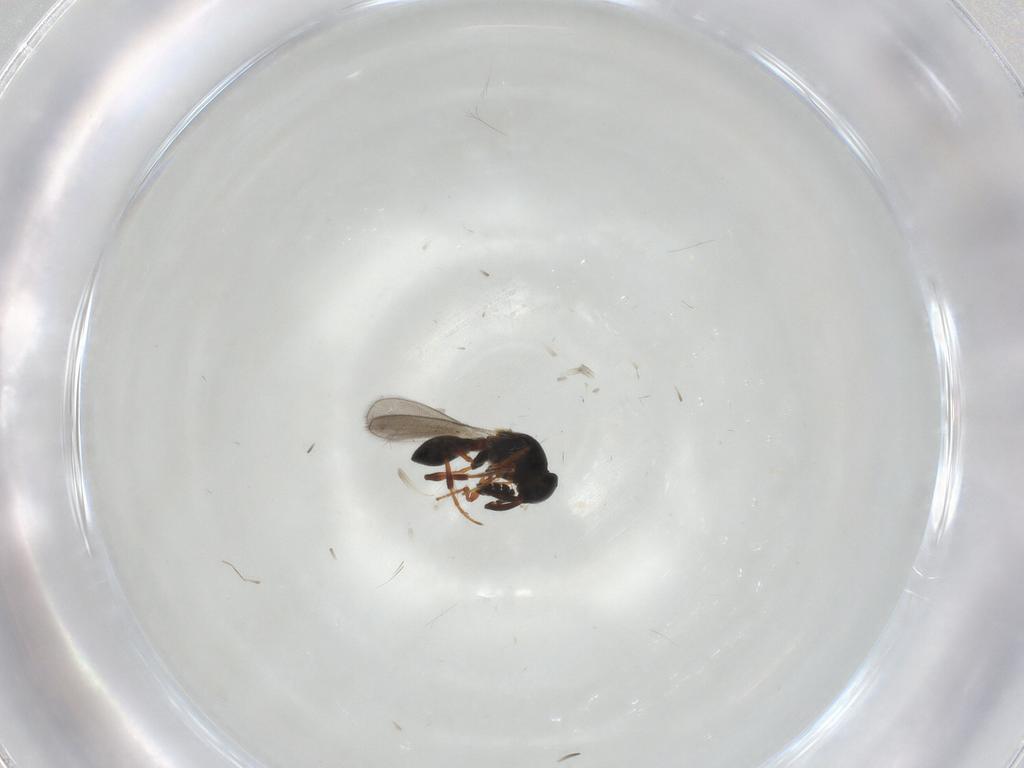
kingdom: Animalia
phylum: Arthropoda
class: Insecta
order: Hymenoptera
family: Platygastridae
